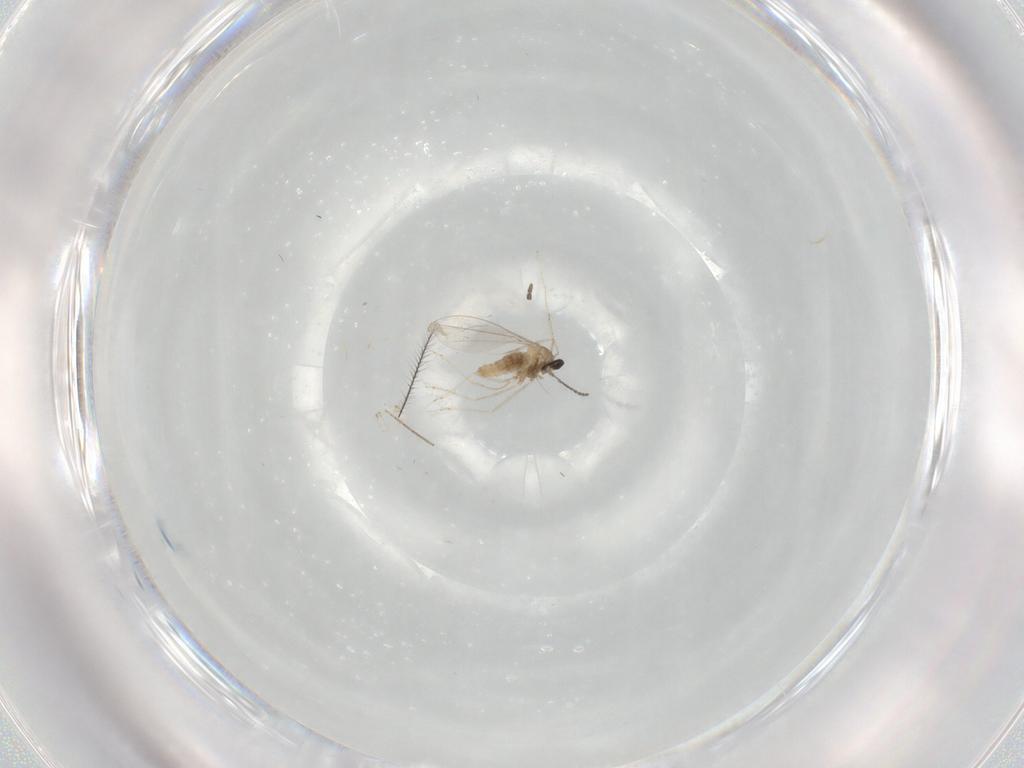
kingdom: Animalia
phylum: Arthropoda
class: Insecta
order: Diptera
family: Cecidomyiidae
